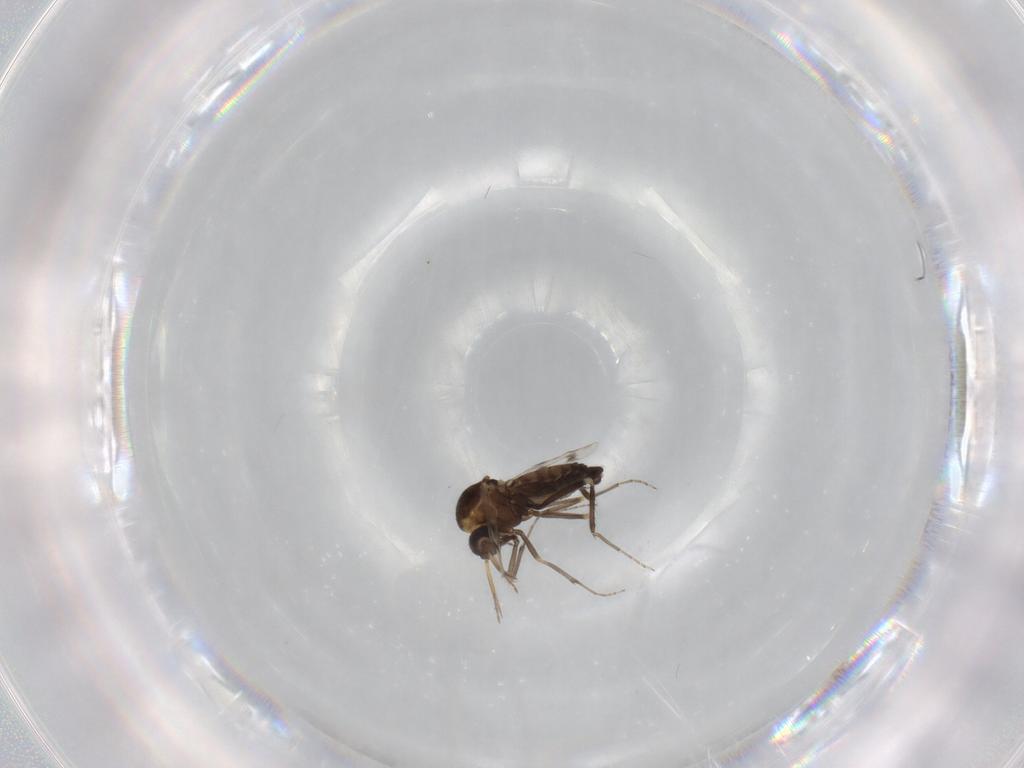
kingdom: Animalia
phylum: Arthropoda
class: Insecta
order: Diptera
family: Ceratopogonidae
